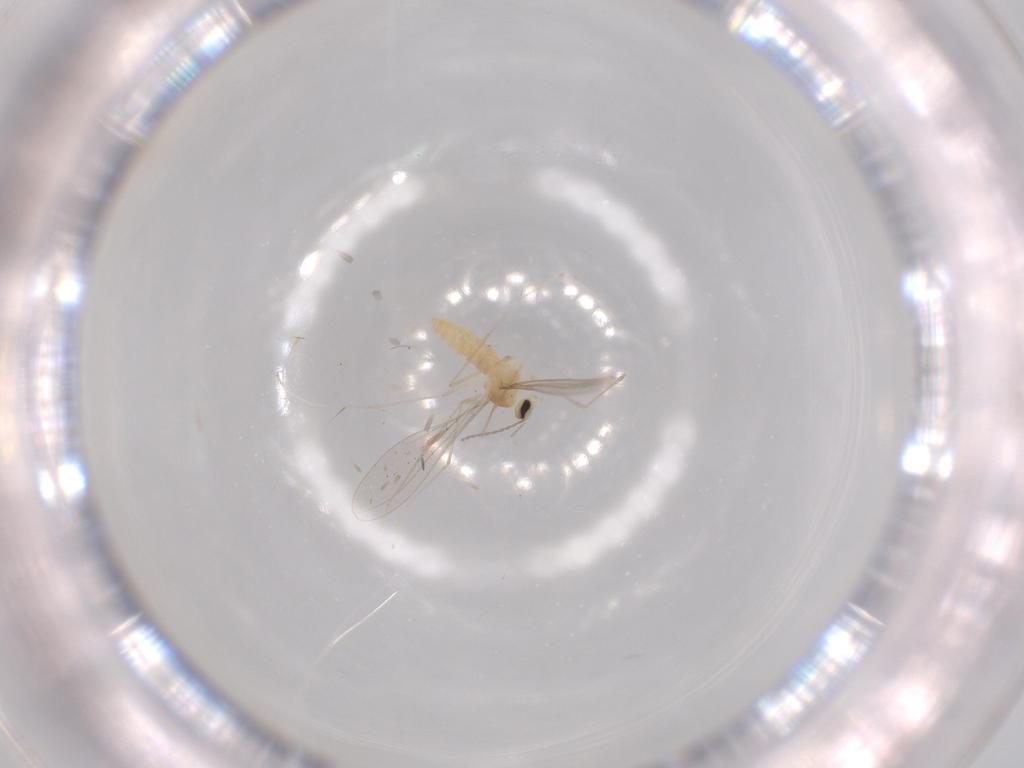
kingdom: Animalia
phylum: Arthropoda
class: Insecta
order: Diptera
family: Cecidomyiidae
